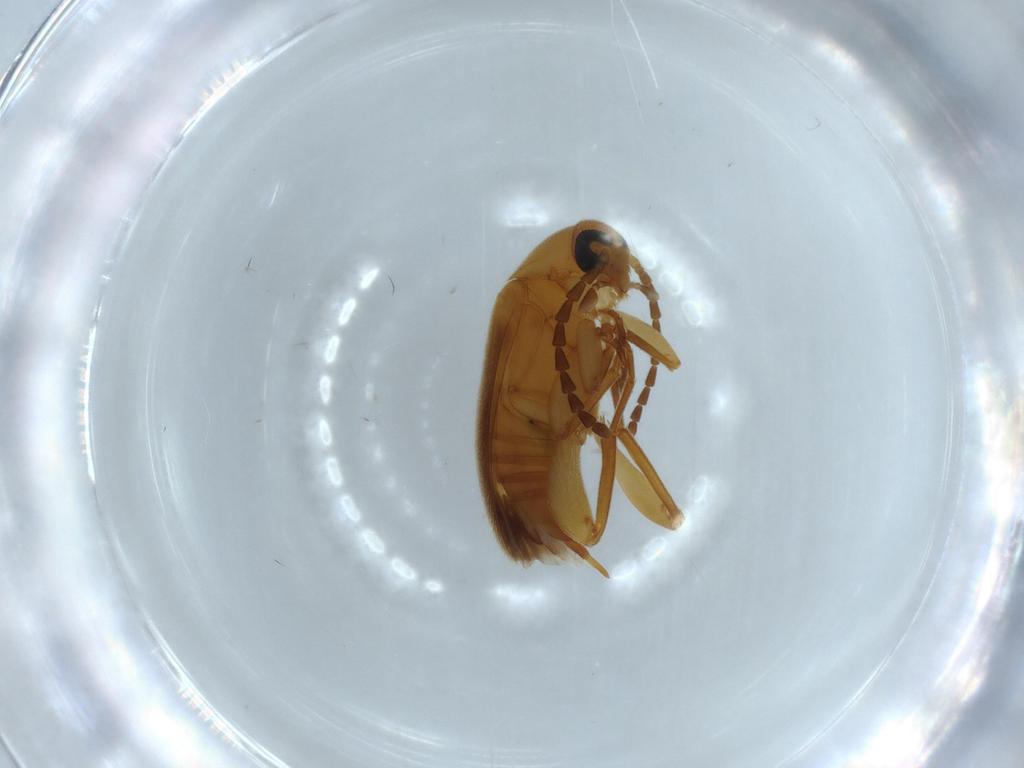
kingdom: Animalia
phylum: Arthropoda
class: Insecta
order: Coleoptera
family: Scraptiidae
